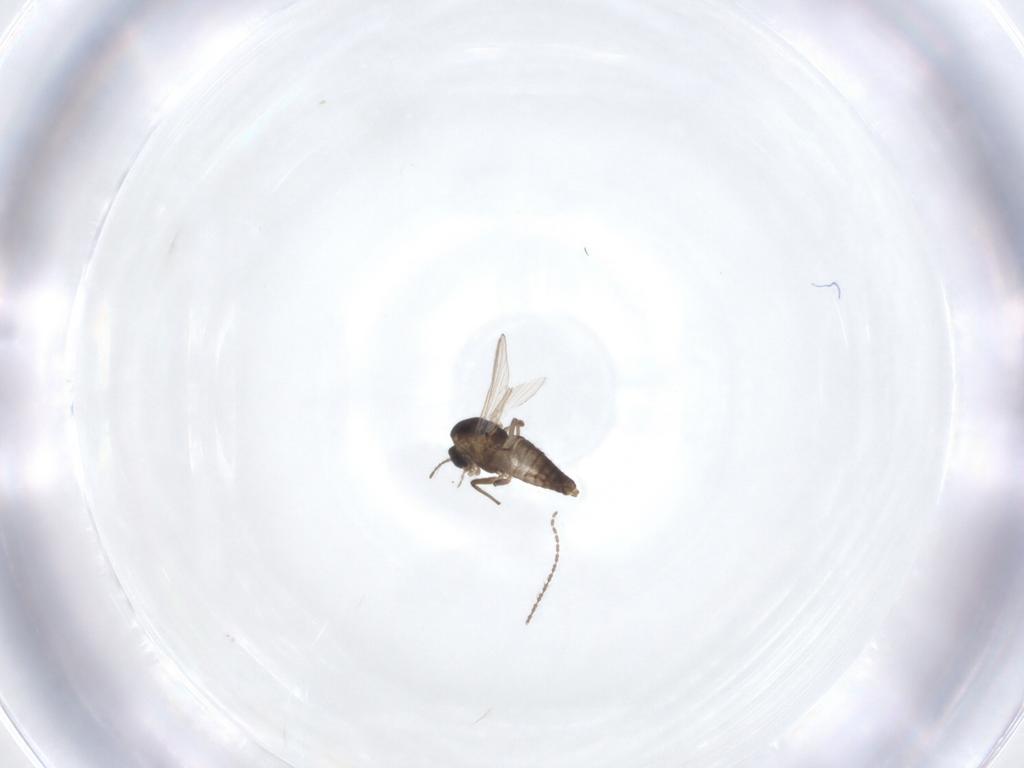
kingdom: Animalia
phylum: Arthropoda
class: Insecta
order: Diptera
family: Chironomidae
